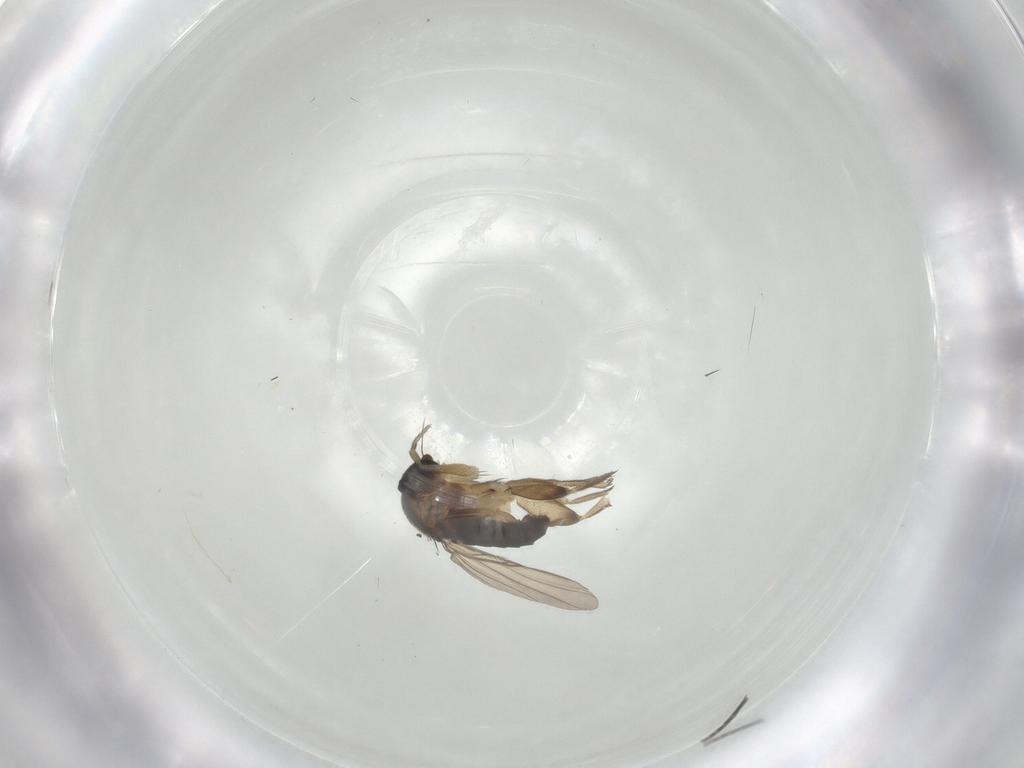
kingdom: Animalia
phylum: Arthropoda
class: Insecta
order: Diptera
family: Phoridae
